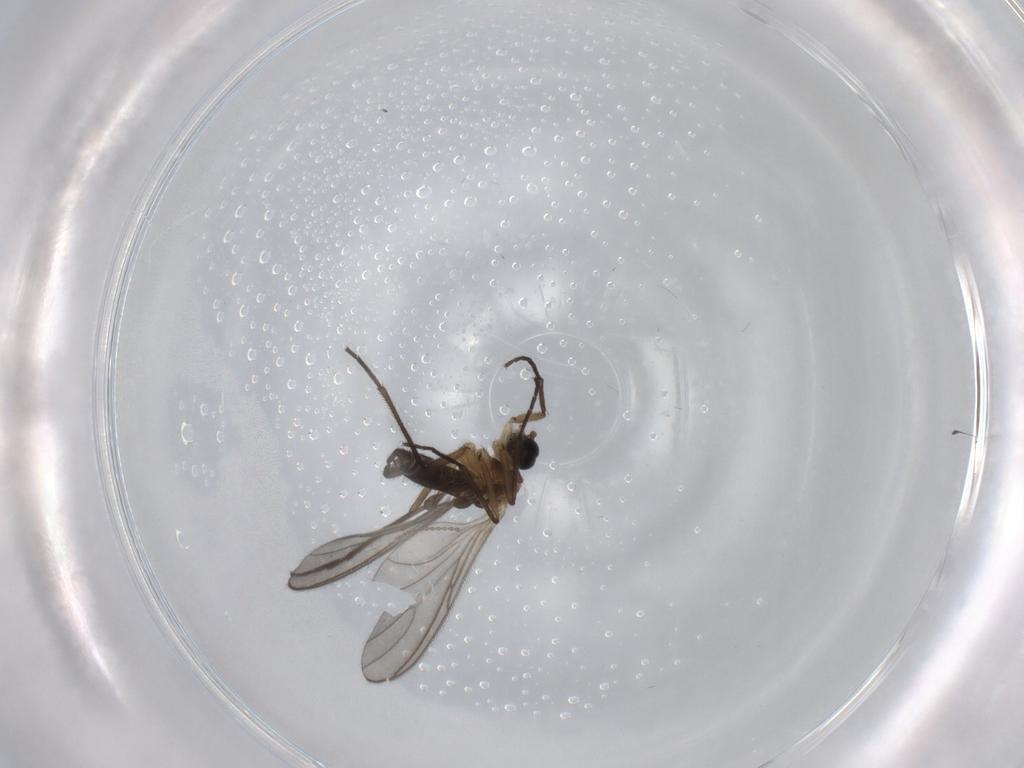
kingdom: Animalia
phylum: Arthropoda
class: Insecta
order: Diptera
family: Sciaridae
